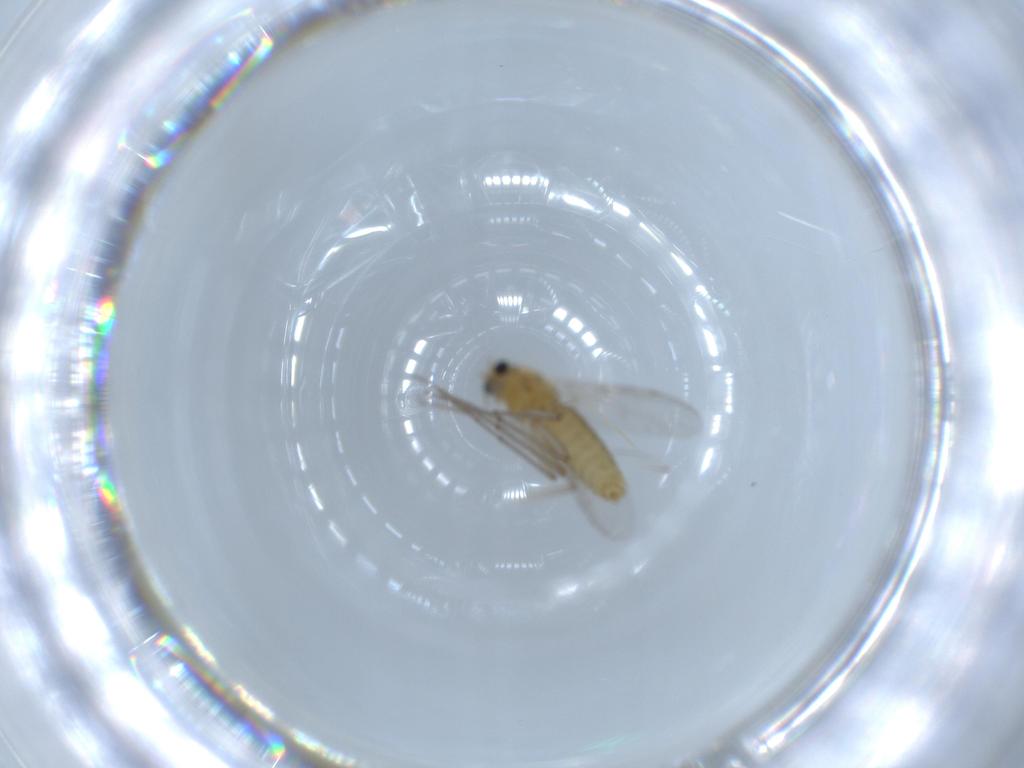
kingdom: Animalia
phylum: Arthropoda
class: Insecta
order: Diptera
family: Chironomidae
